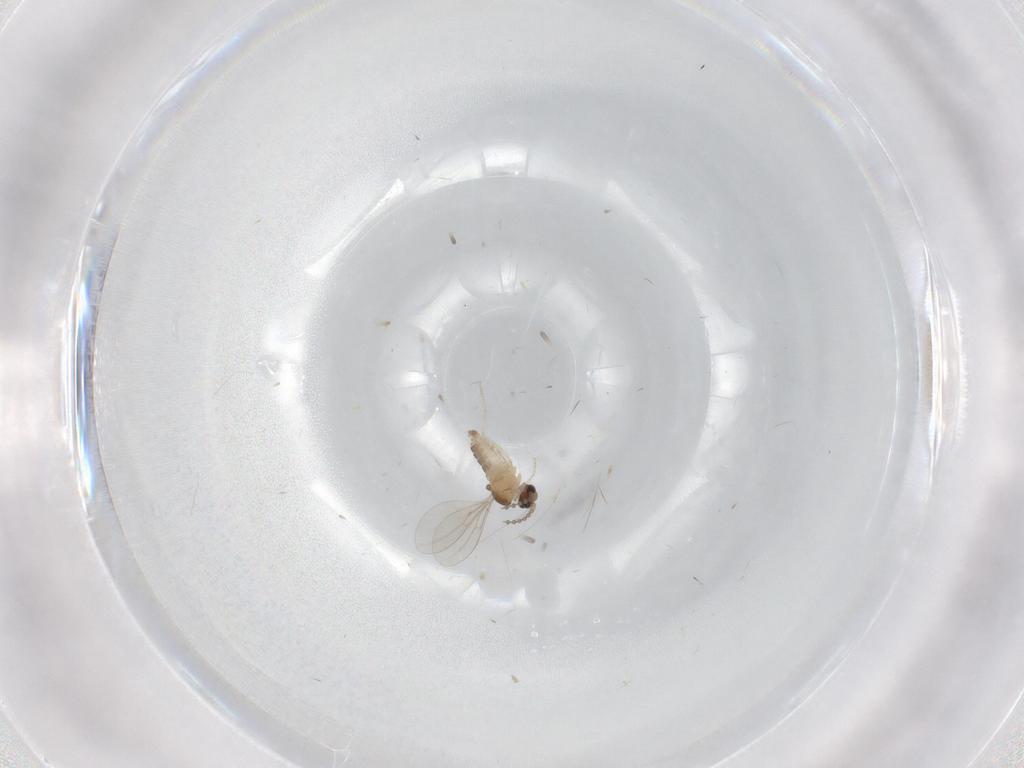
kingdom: Animalia
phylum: Arthropoda
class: Insecta
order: Diptera
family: Cecidomyiidae
